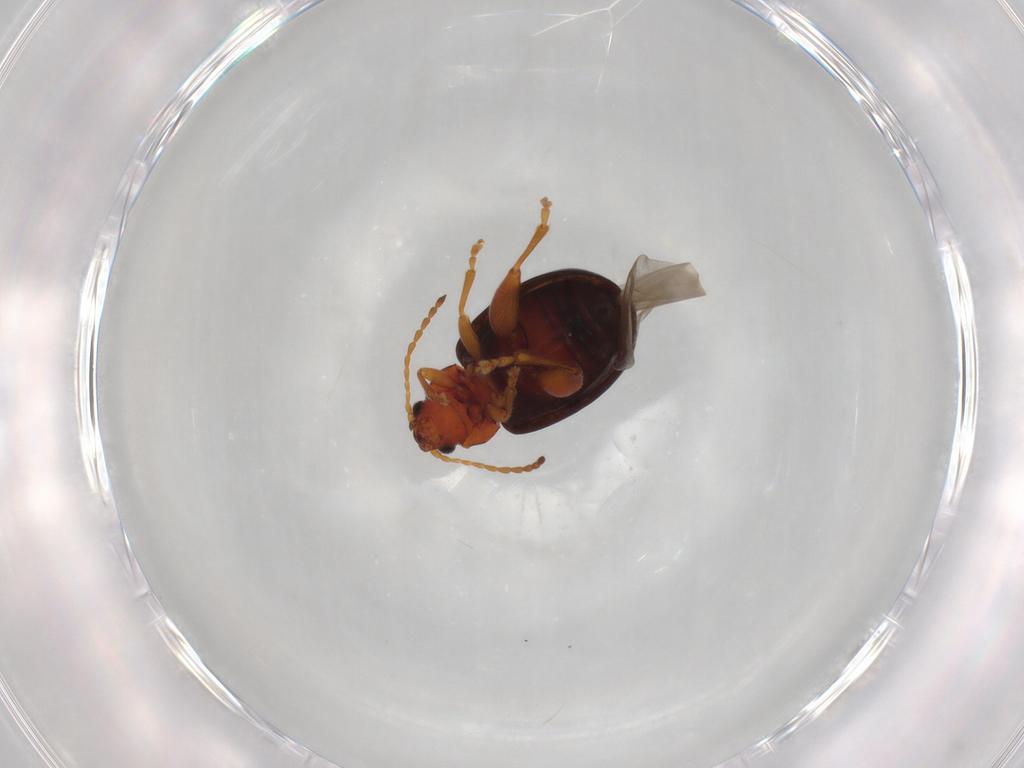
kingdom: Animalia
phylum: Arthropoda
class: Insecta
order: Coleoptera
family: Chrysomelidae
